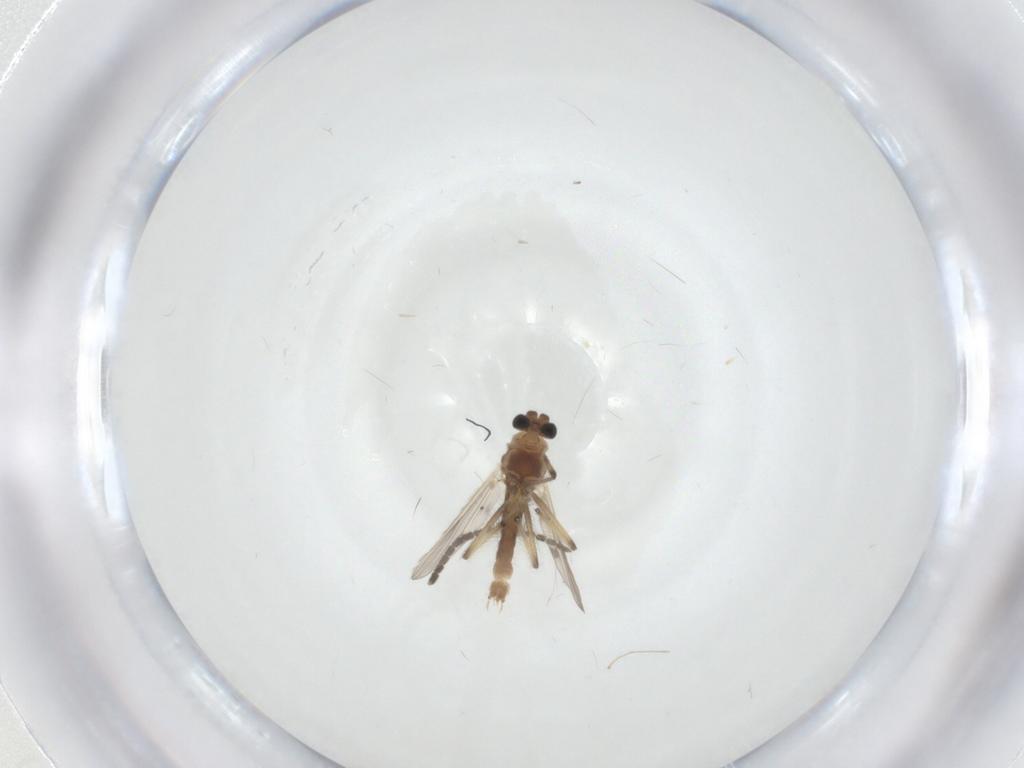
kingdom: Animalia
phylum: Arthropoda
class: Insecta
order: Diptera
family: Chironomidae
